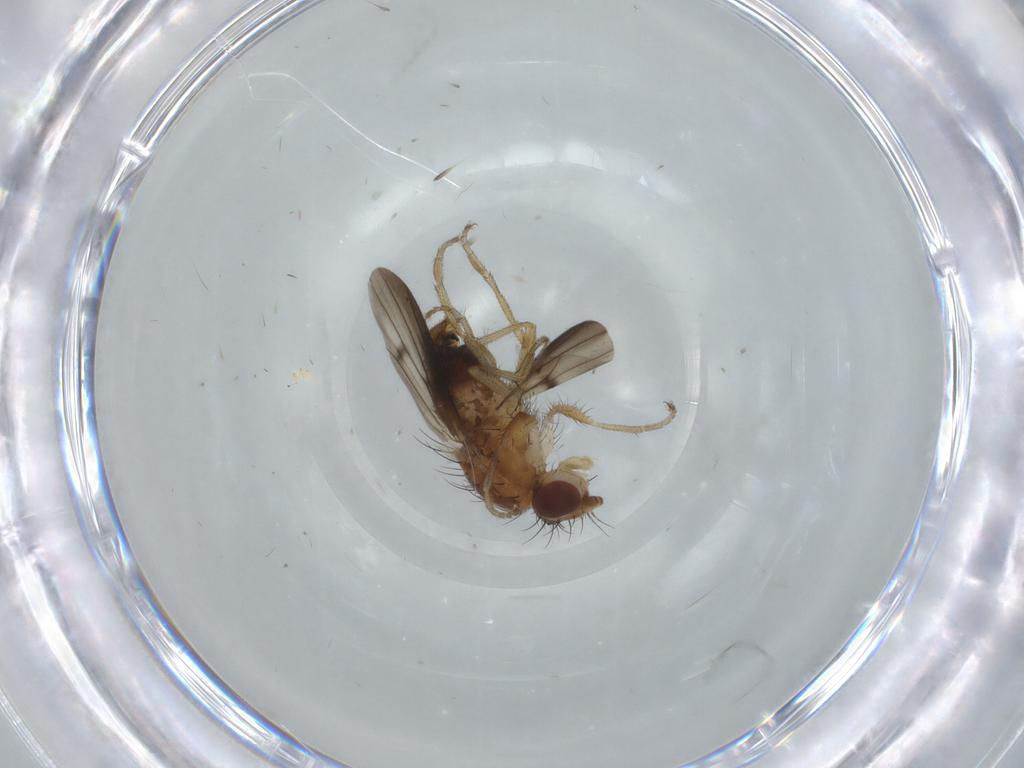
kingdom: Animalia
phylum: Arthropoda
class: Insecta
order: Diptera
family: Heleomyzidae
